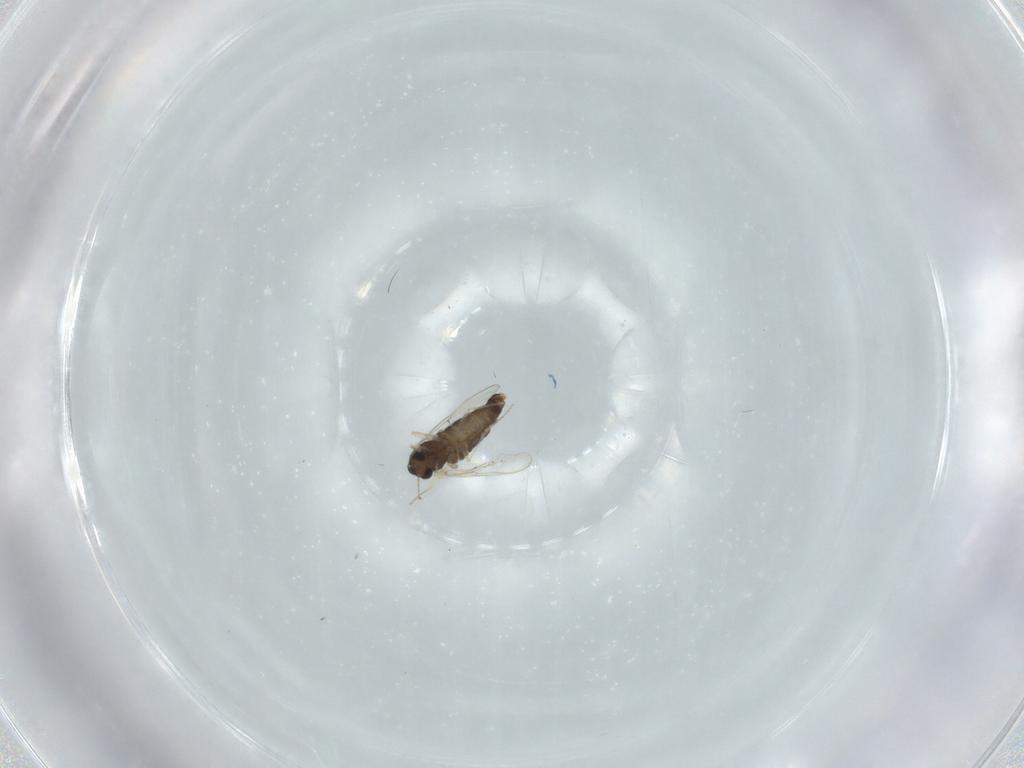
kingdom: Animalia
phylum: Arthropoda
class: Insecta
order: Diptera
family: Chironomidae
